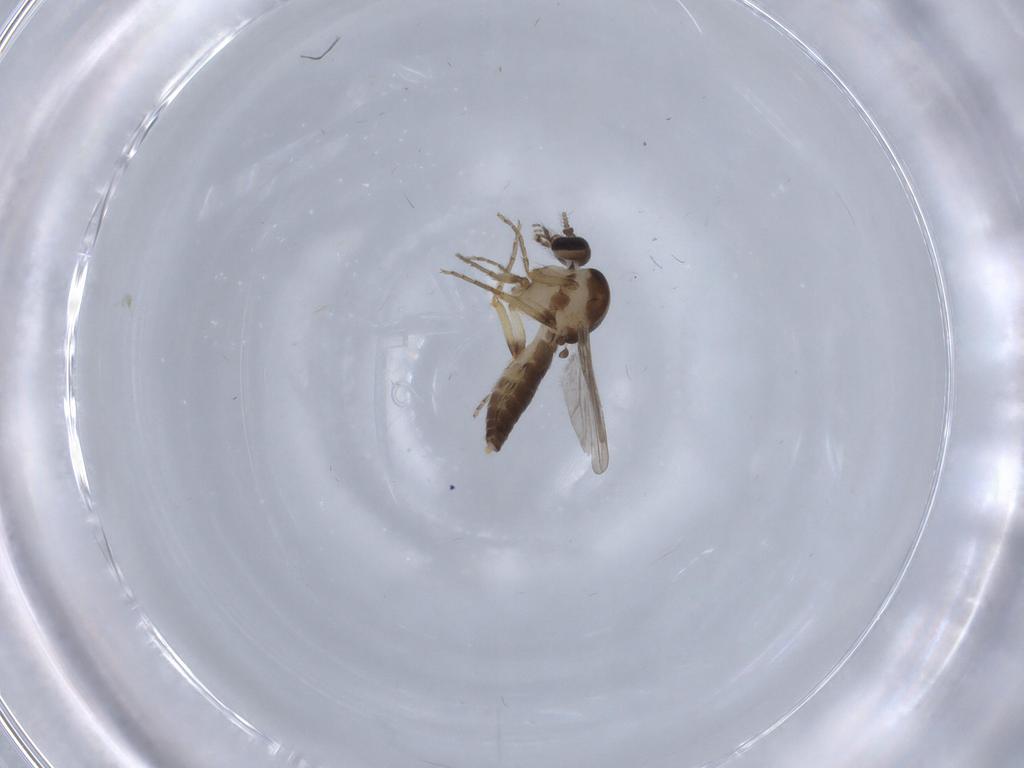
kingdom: Animalia
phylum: Arthropoda
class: Insecta
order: Diptera
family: Ceratopogonidae
